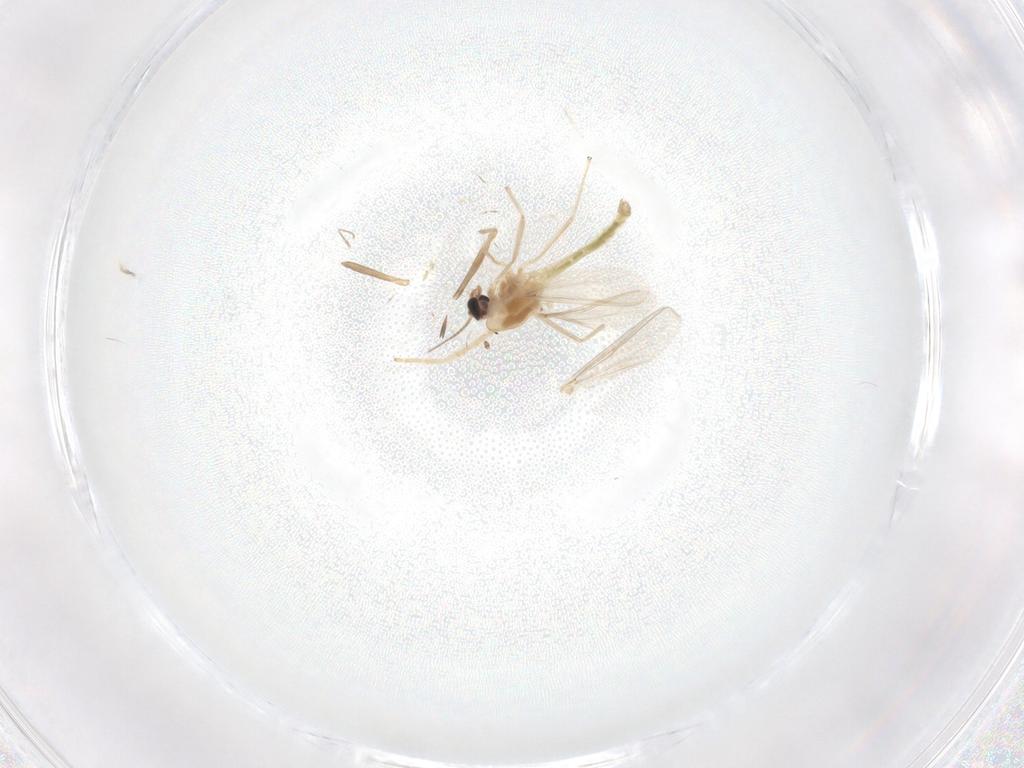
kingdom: Animalia
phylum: Arthropoda
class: Insecta
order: Diptera
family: Chironomidae
